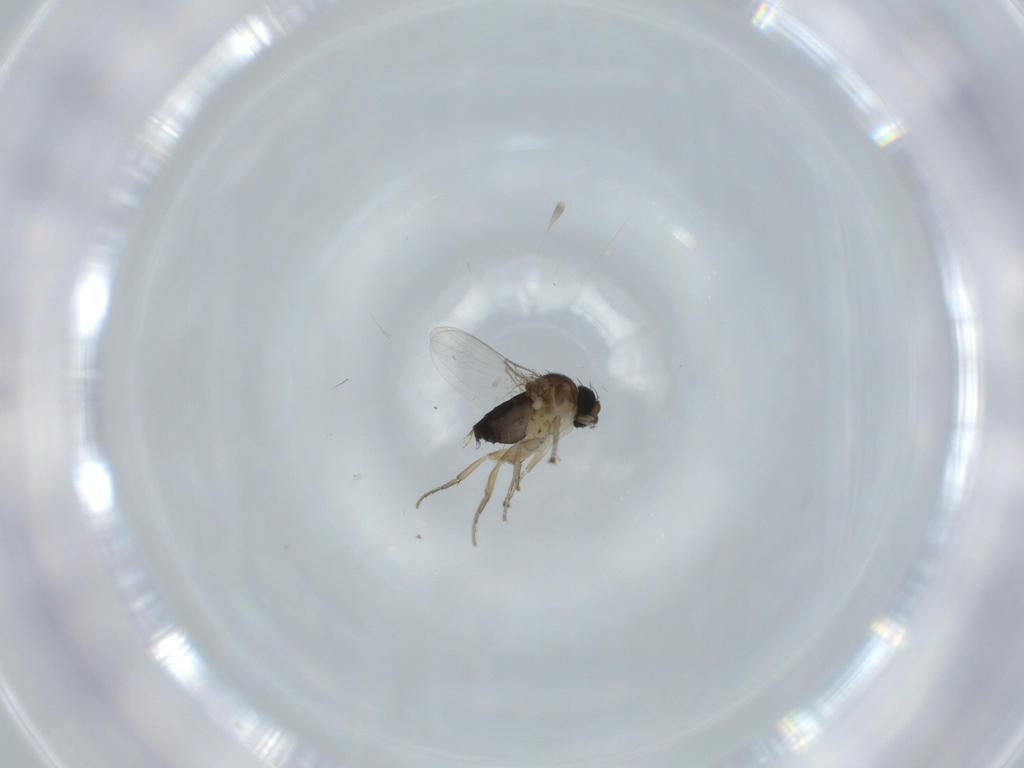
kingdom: Animalia
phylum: Arthropoda
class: Insecta
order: Diptera
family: Phoridae
